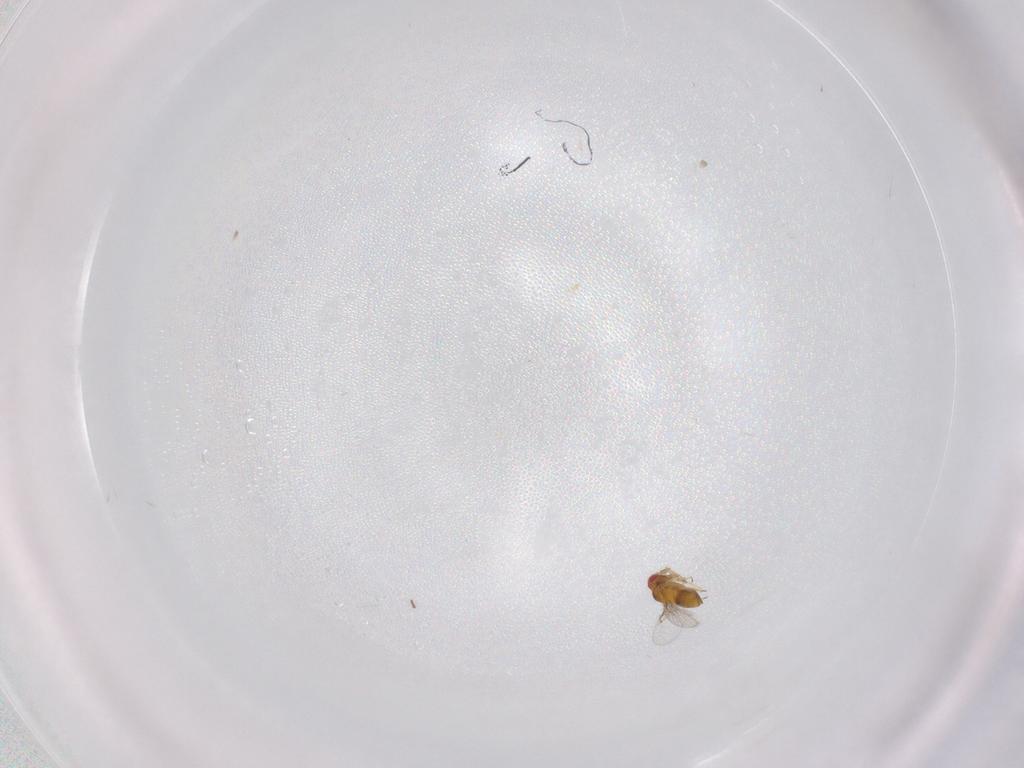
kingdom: Animalia
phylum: Arthropoda
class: Insecta
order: Hymenoptera
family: Trichogrammatidae
